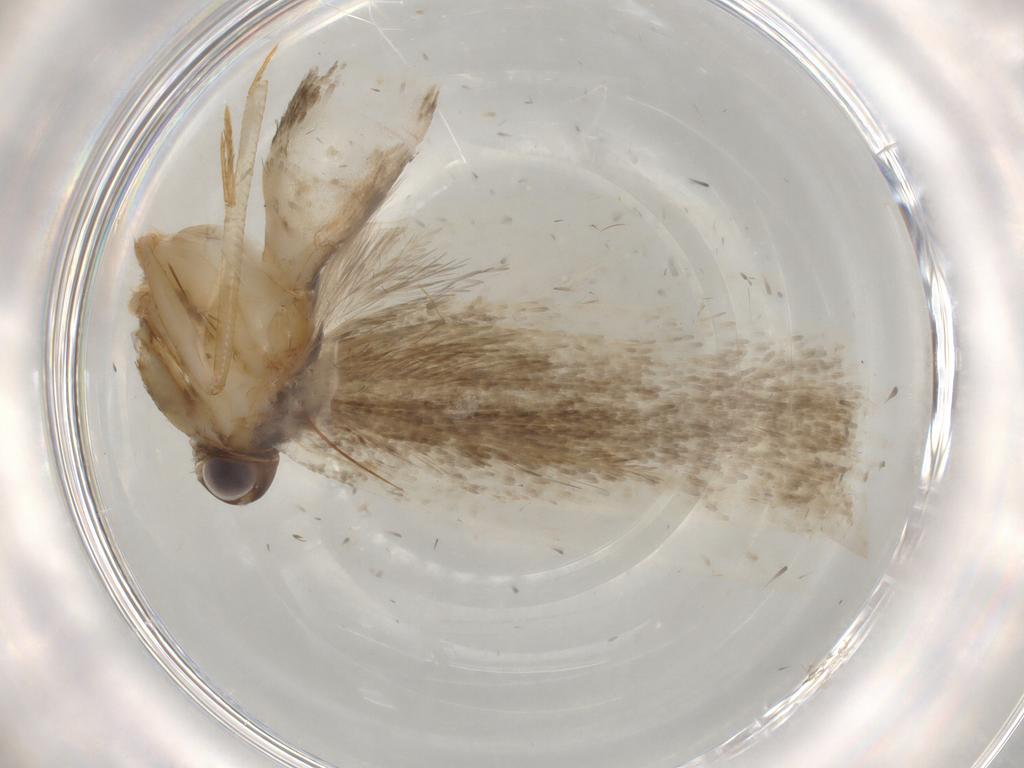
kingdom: Animalia
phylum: Arthropoda
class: Insecta
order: Lepidoptera
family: Gelechiidae
